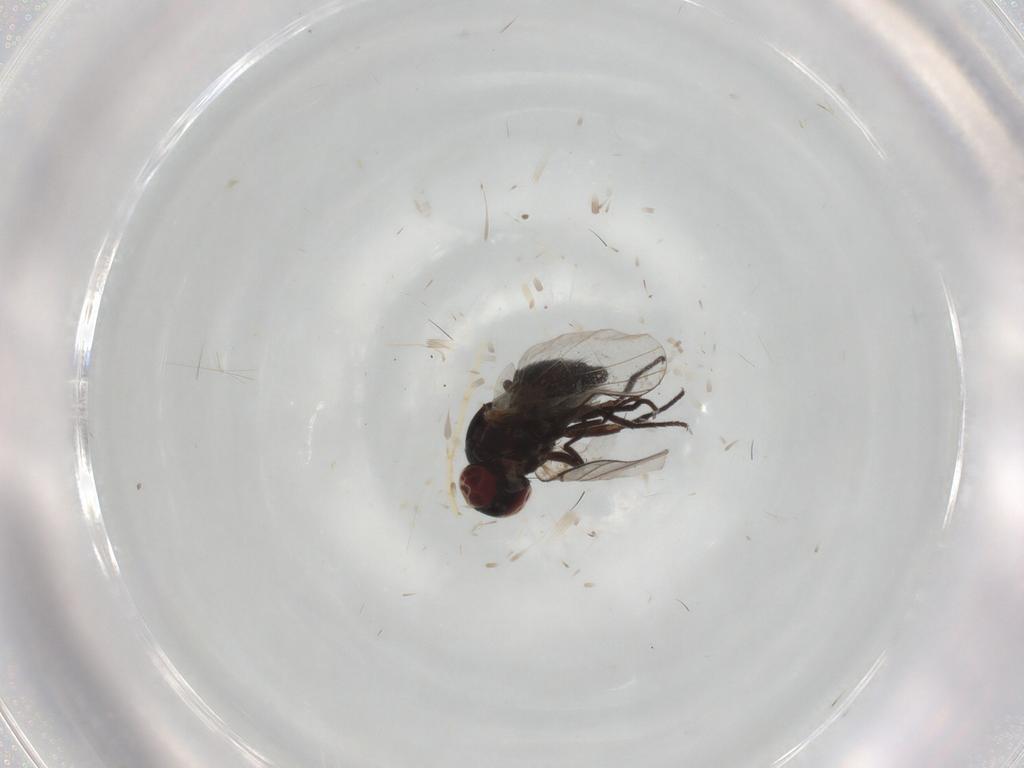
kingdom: Animalia
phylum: Arthropoda
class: Insecta
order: Diptera
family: Agromyzidae
